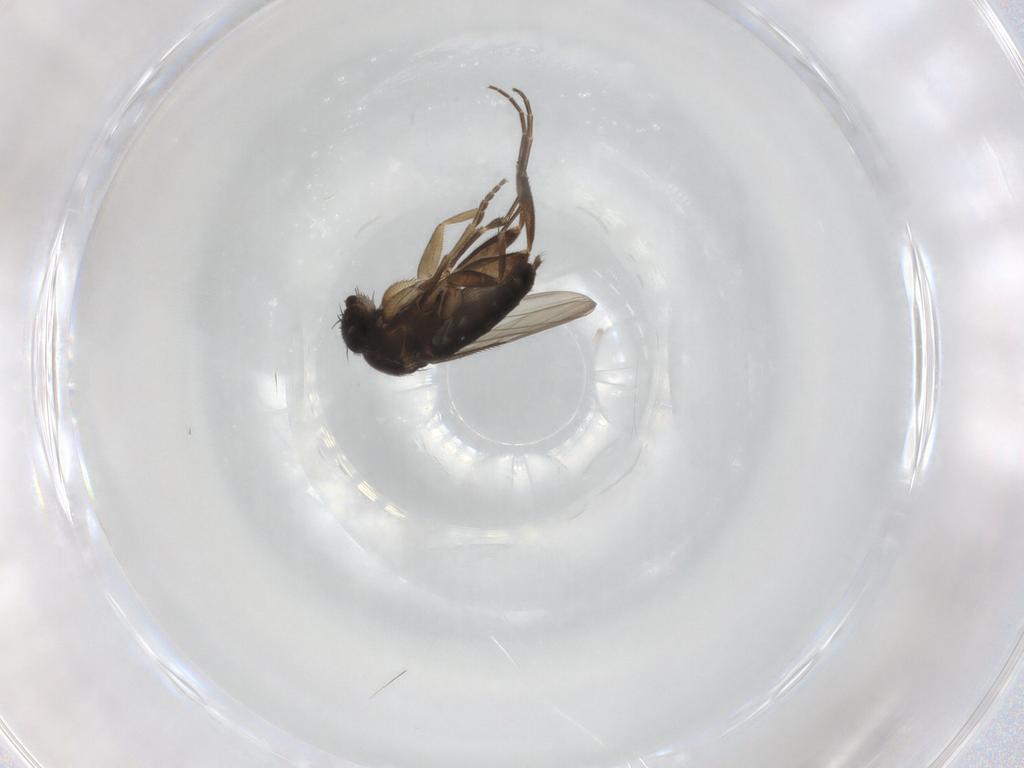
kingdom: Animalia
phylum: Arthropoda
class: Insecta
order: Diptera
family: Phoridae
